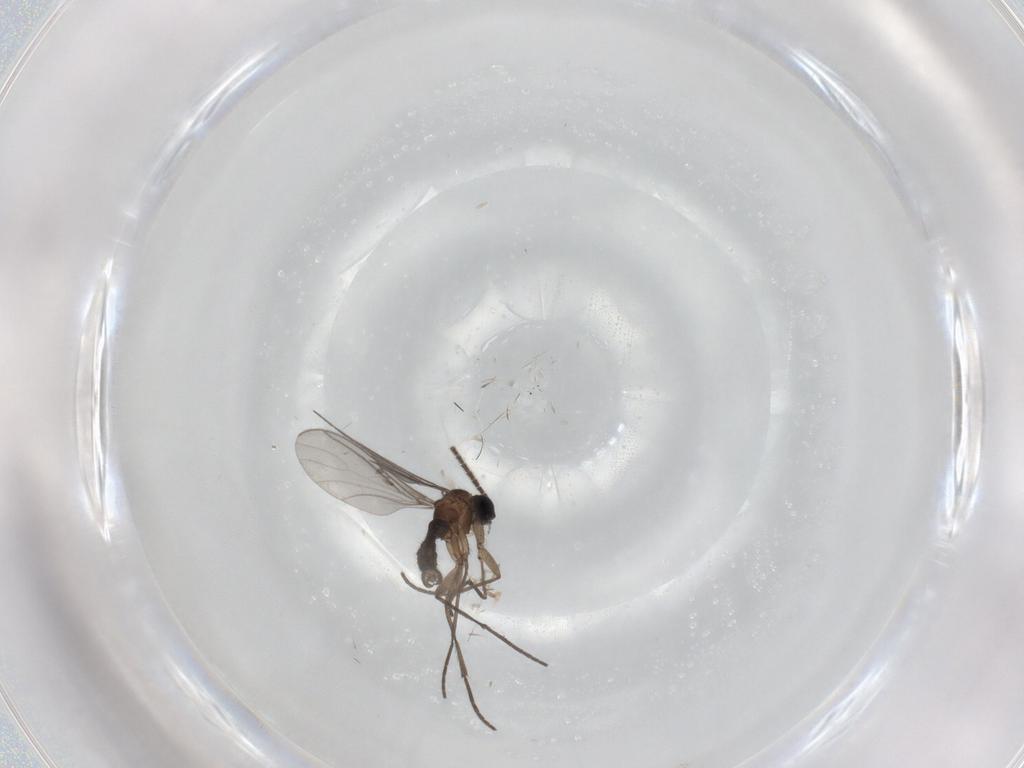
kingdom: Animalia
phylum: Arthropoda
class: Insecta
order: Diptera
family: Sciaridae
